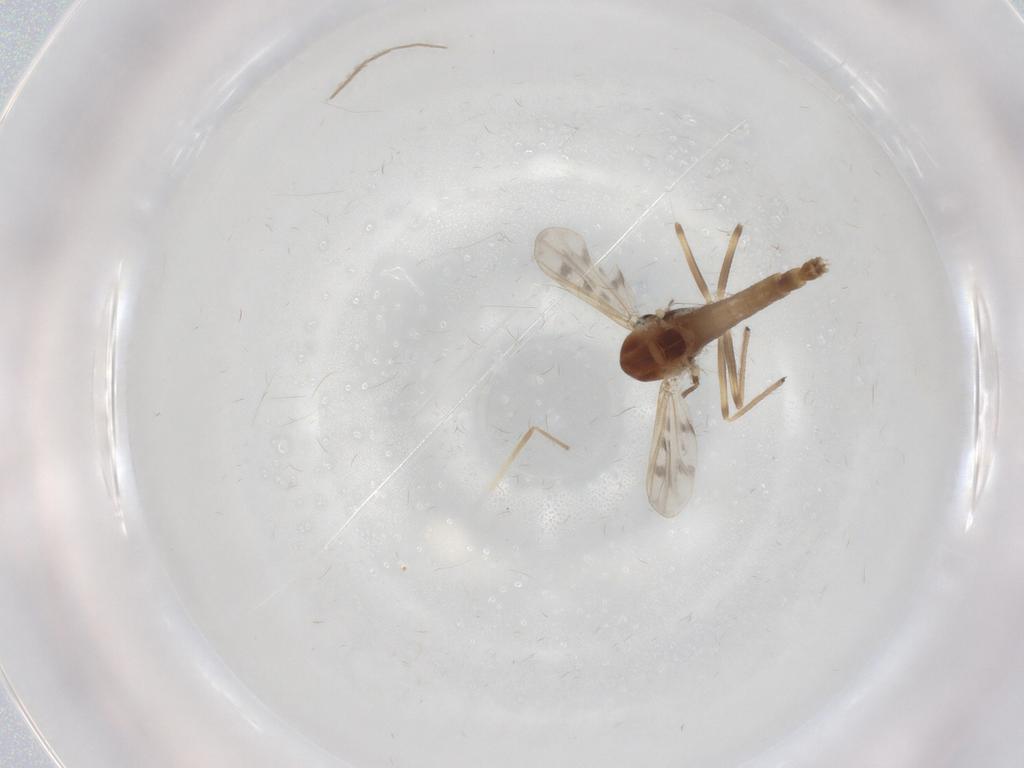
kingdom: Animalia
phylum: Arthropoda
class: Insecta
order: Diptera
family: Chironomidae
